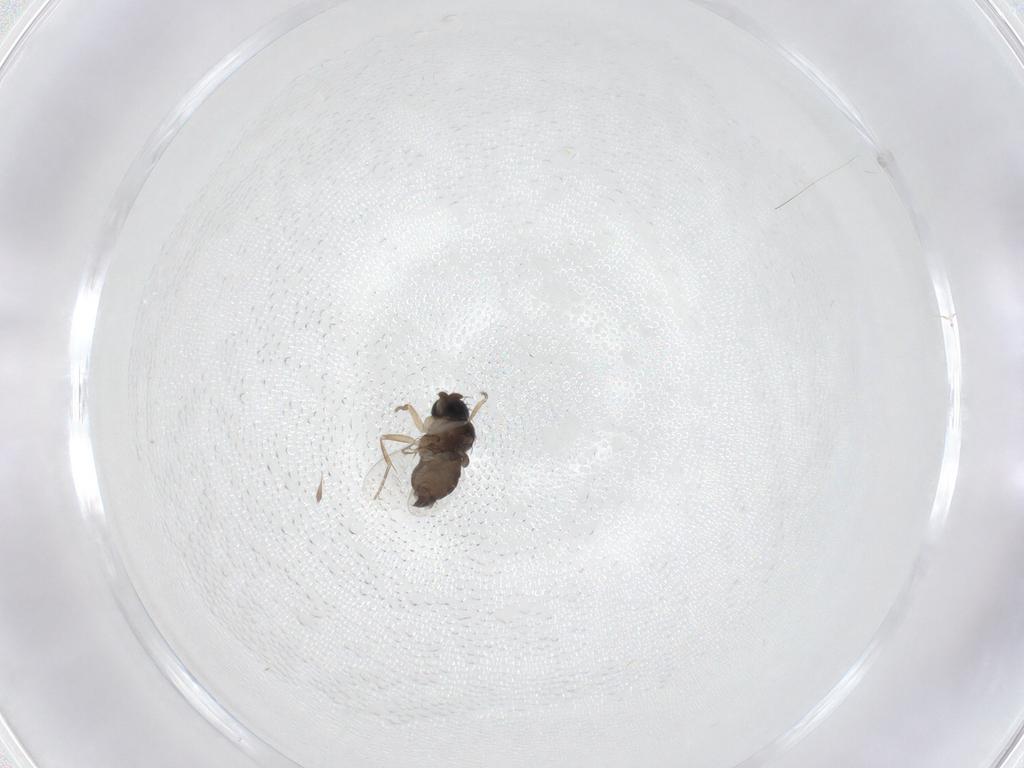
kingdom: Animalia
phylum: Arthropoda
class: Insecta
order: Diptera
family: Phoridae
